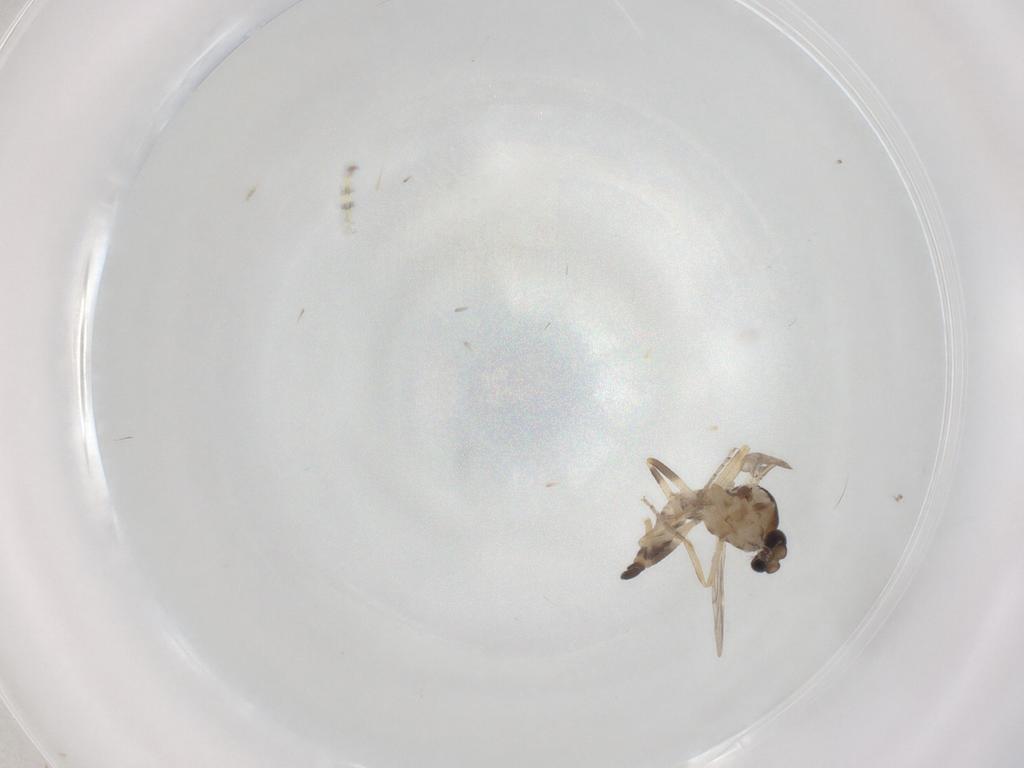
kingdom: Animalia
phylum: Arthropoda
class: Insecta
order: Diptera
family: Ceratopogonidae
